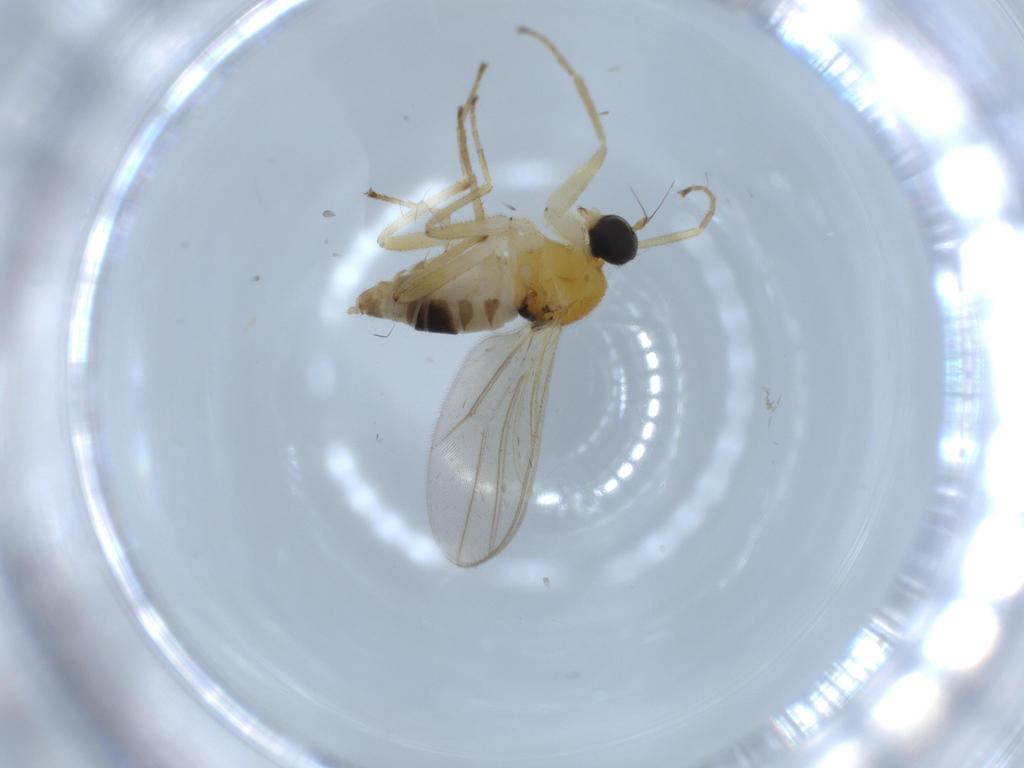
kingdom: Animalia
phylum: Arthropoda
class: Insecta
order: Diptera
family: Hybotidae
